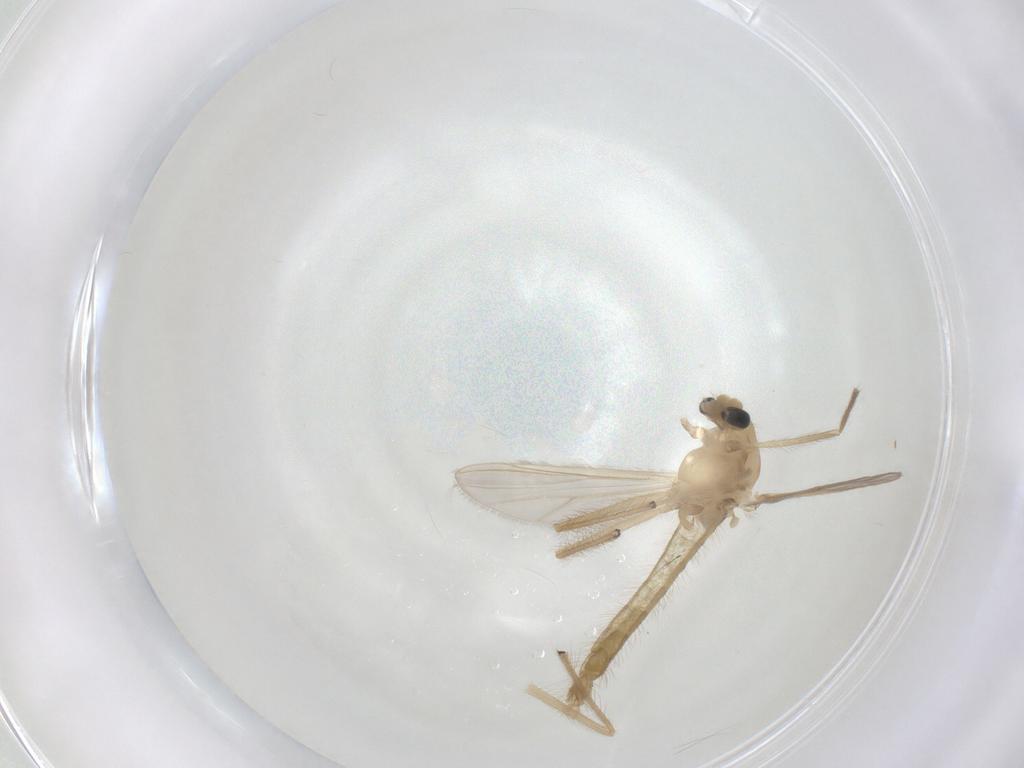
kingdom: Animalia
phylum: Arthropoda
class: Insecta
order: Diptera
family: Chironomidae
